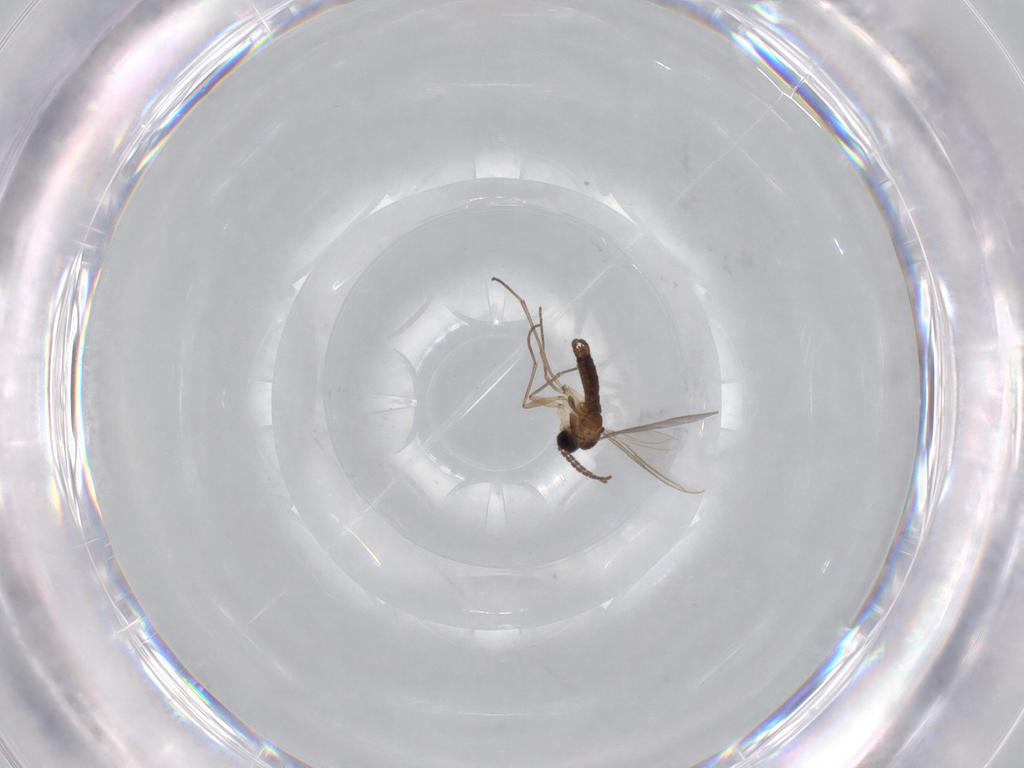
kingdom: Animalia
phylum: Arthropoda
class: Insecta
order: Diptera
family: Sciaridae
